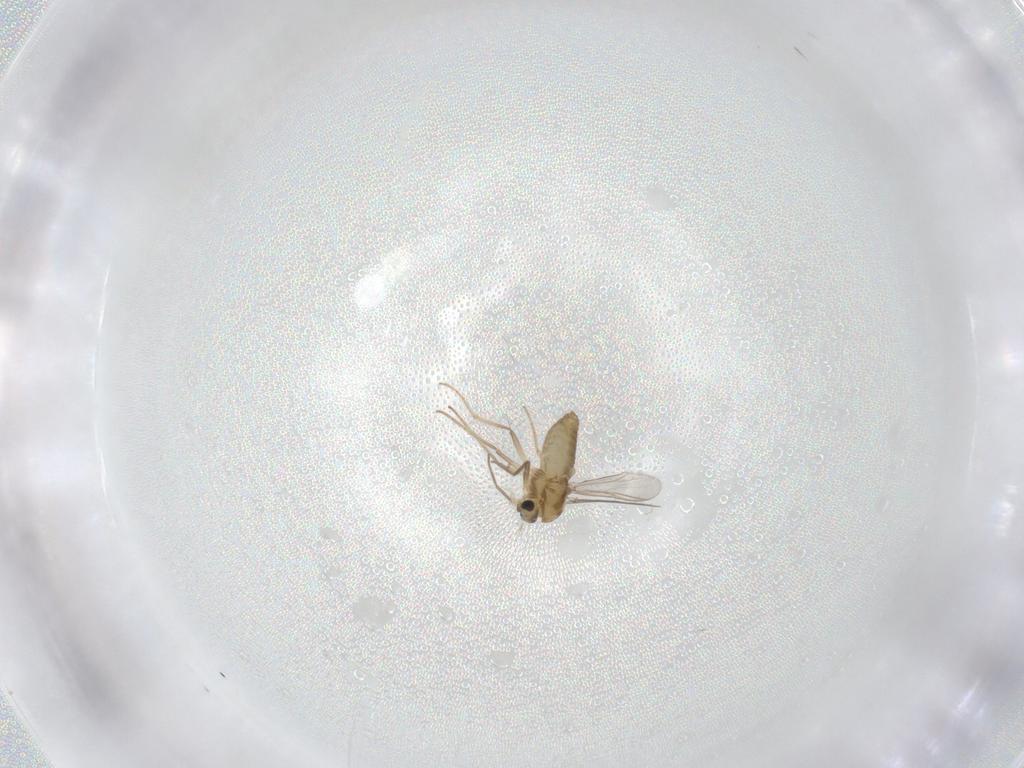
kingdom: Animalia
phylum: Arthropoda
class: Insecta
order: Diptera
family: Chironomidae
